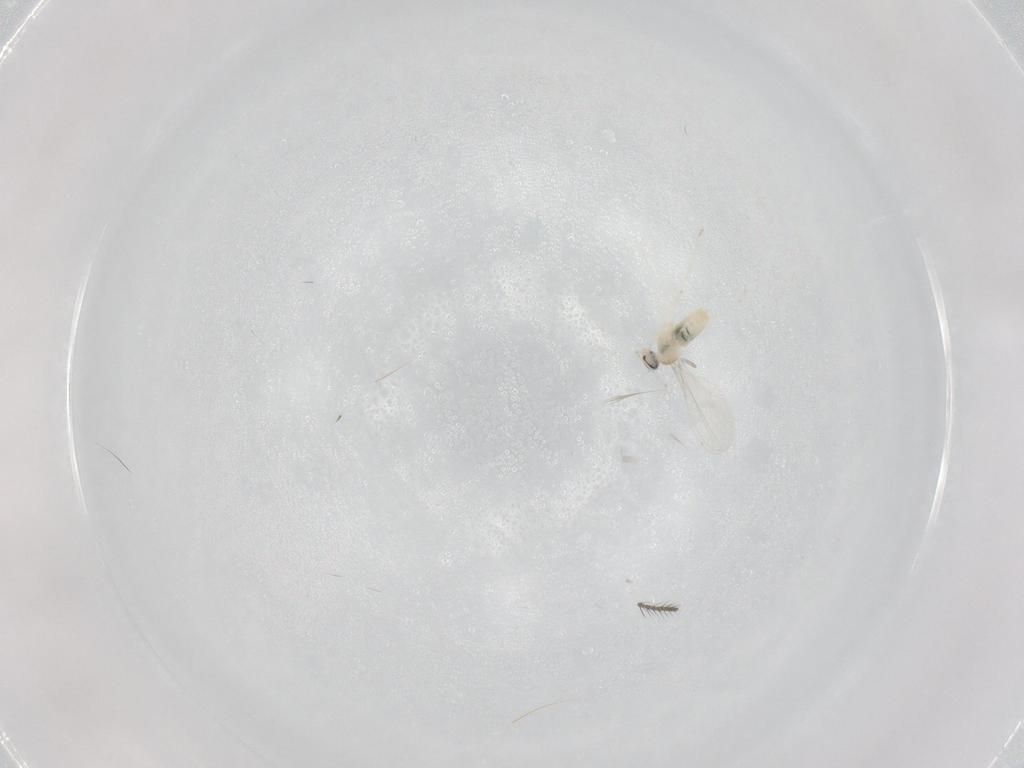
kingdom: Animalia
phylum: Arthropoda
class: Insecta
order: Diptera
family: Cecidomyiidae
